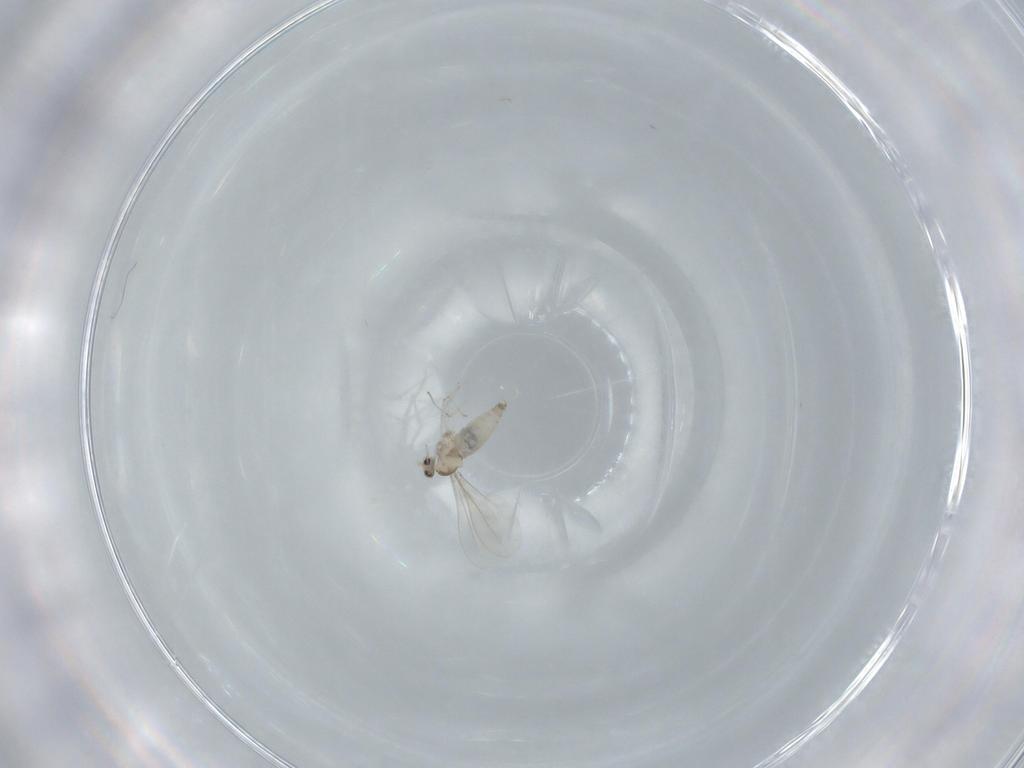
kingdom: Animalia
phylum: Arthropoda
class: Insecta
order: Diptera
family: Cecidomyiidae
